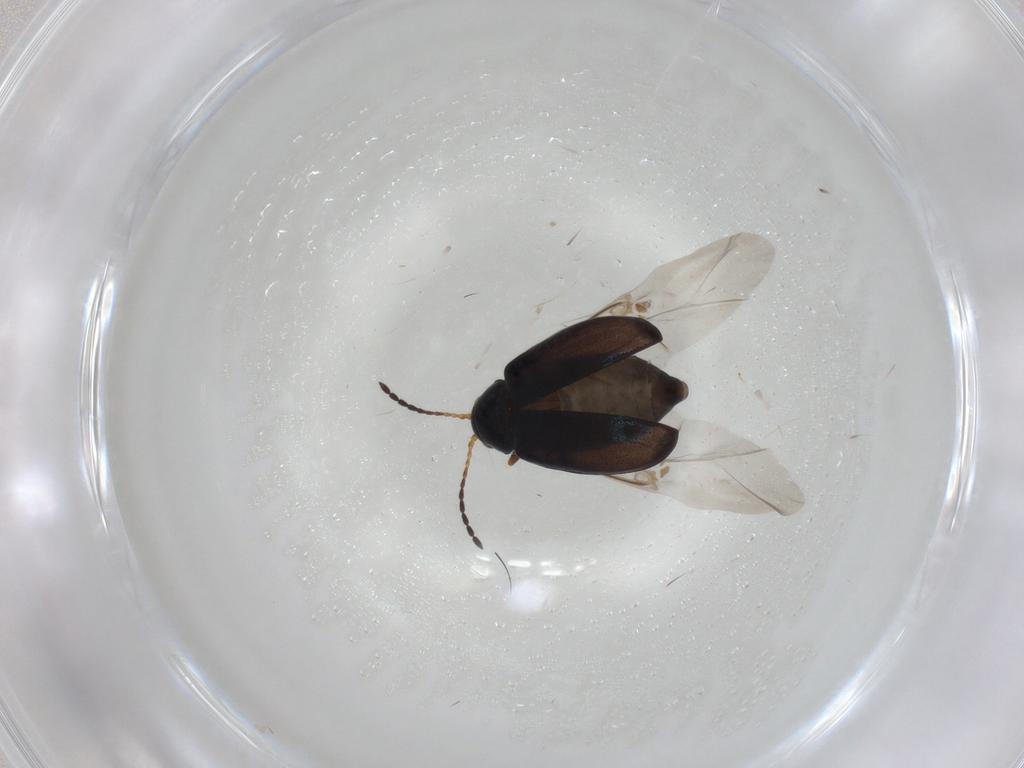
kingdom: Animalia
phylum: Arthropoda
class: Insecta
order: Coleoptera
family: Chrysomelidae
